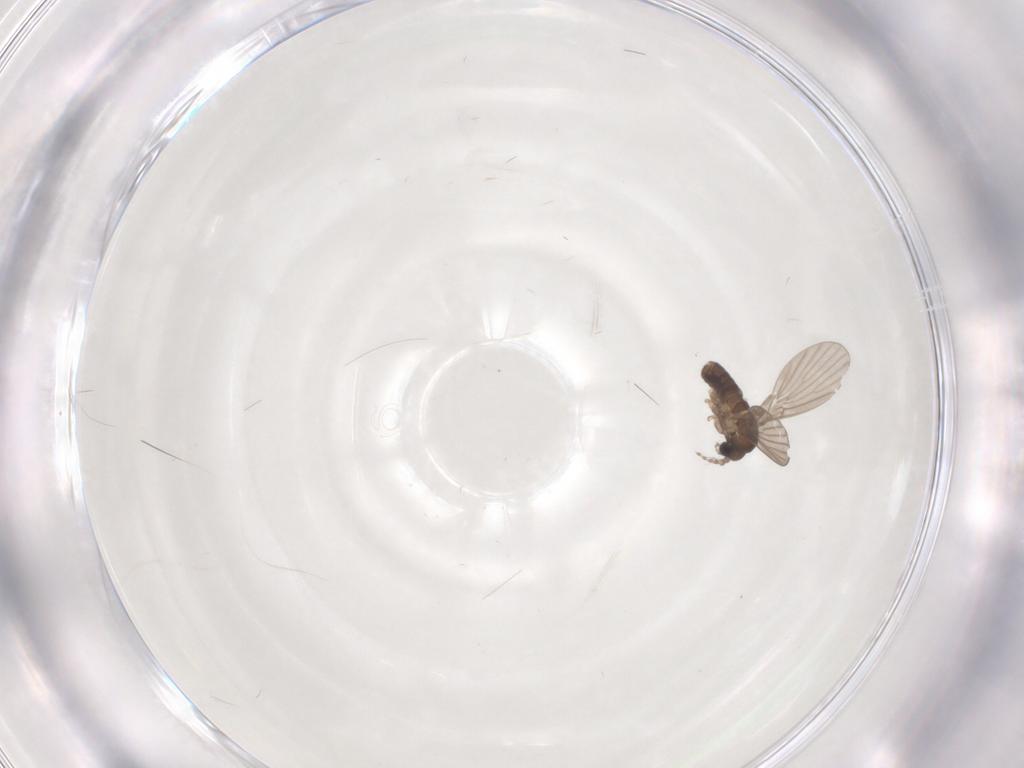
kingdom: Animalia
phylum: Arthropoda
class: Insecta
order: Diptera
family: Psychodidae
